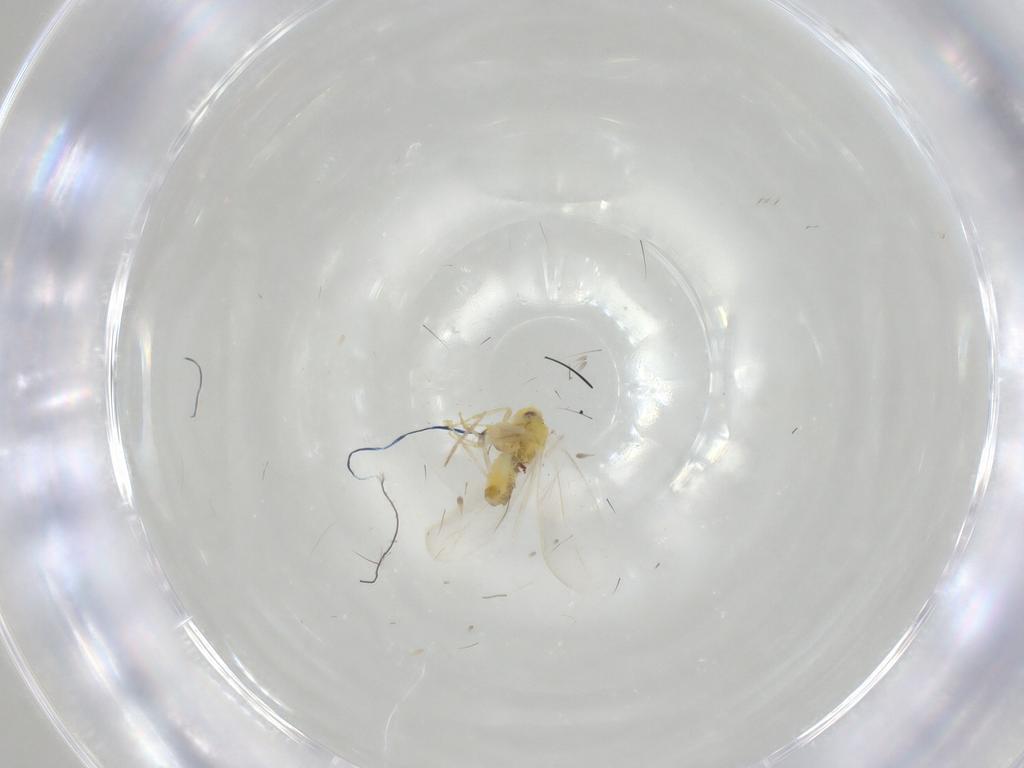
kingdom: Animalia
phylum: Arthropoda
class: Insecta
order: Hemiptera
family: Aleyrodidae
